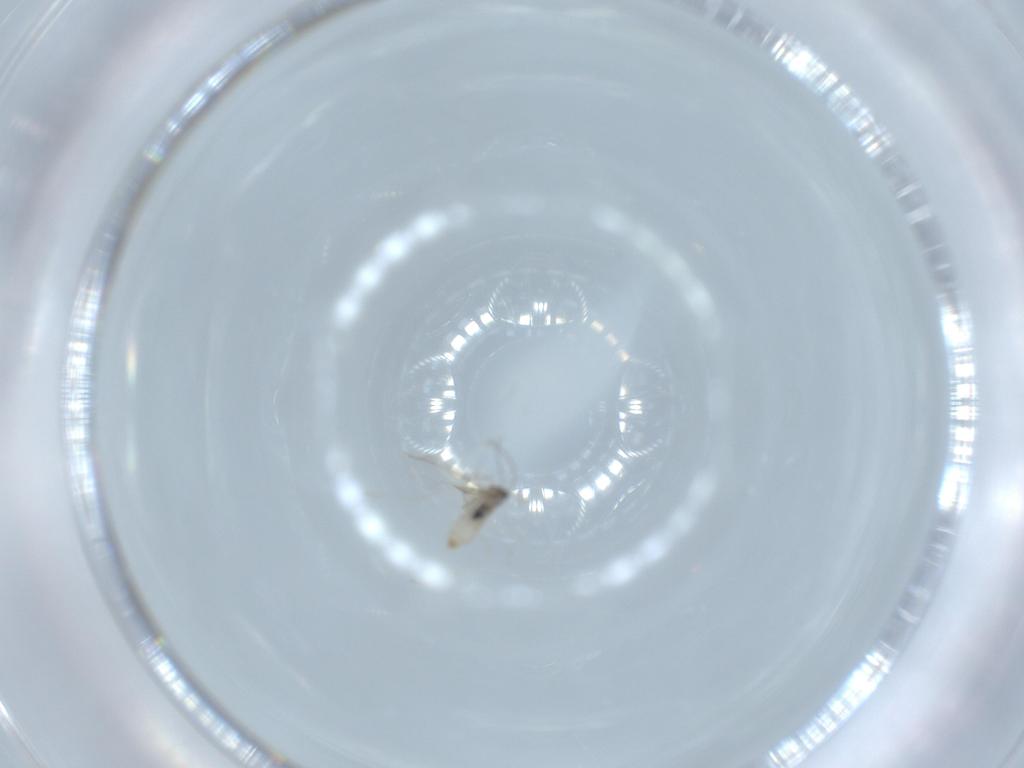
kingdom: Animalia
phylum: Arthropoda
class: Insecta
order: Diptera
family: Cecidomyiidae
